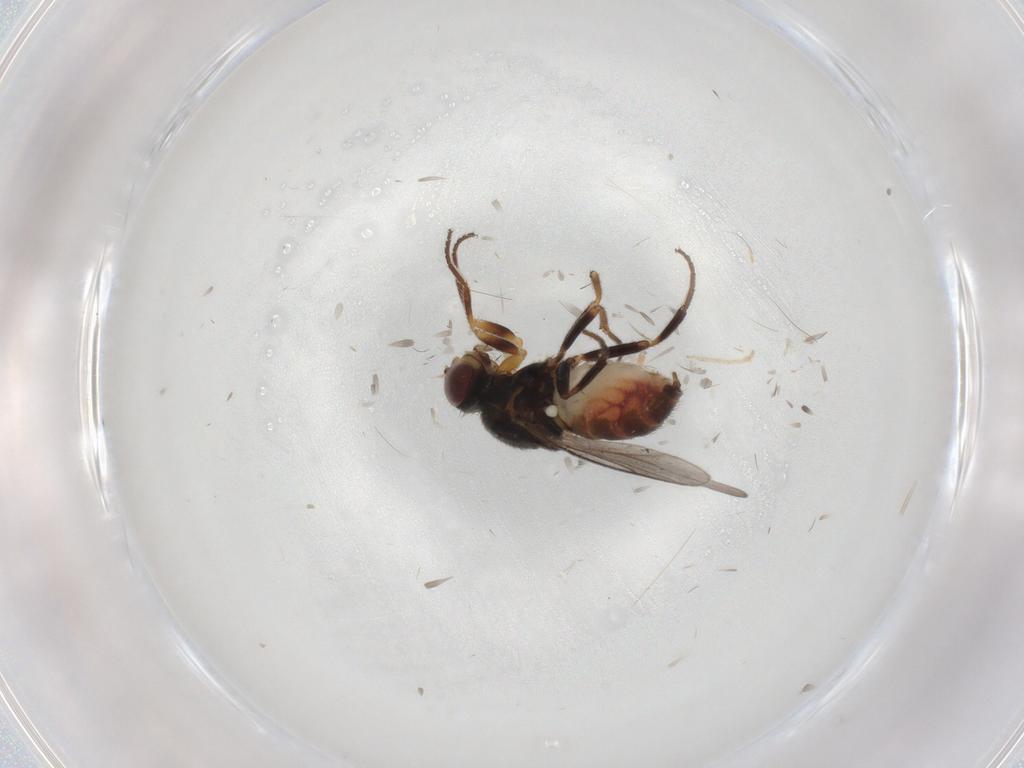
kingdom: Animalia
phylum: Arthropoda
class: Insecta
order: Diptera
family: Chloropidae
